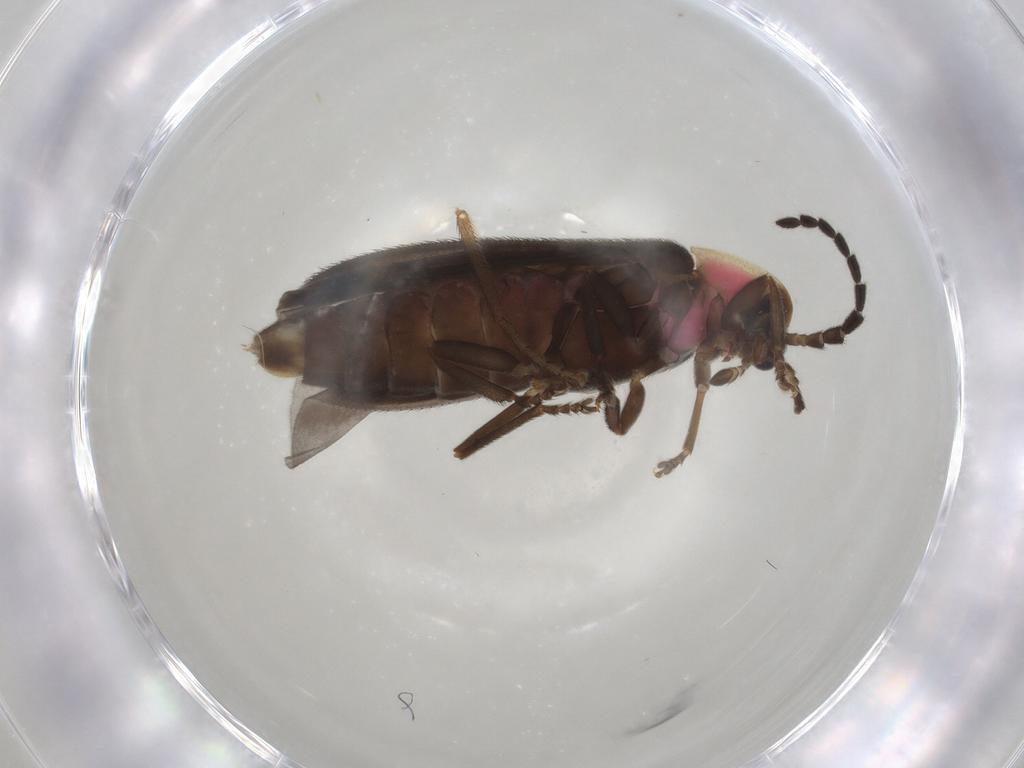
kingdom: Animalia
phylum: Arthropoda
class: Insecta
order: Coleoptera
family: Lampyridae
